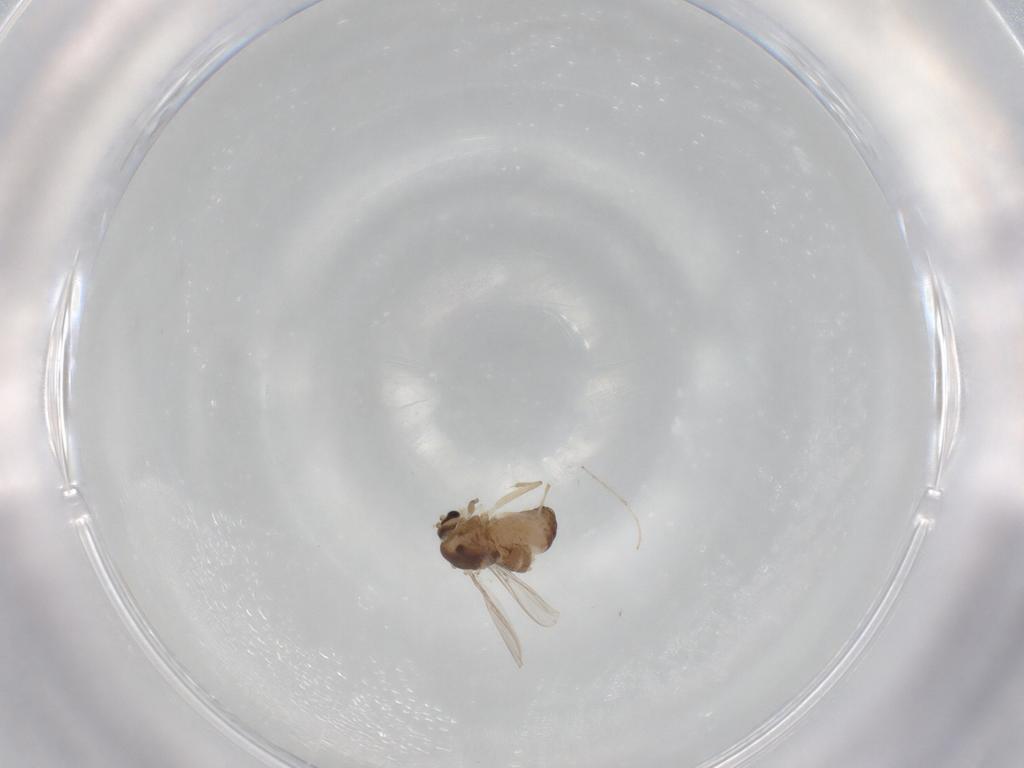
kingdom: Animalia
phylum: Arthropoda
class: Insecta
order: Diptera
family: Chironomidae
